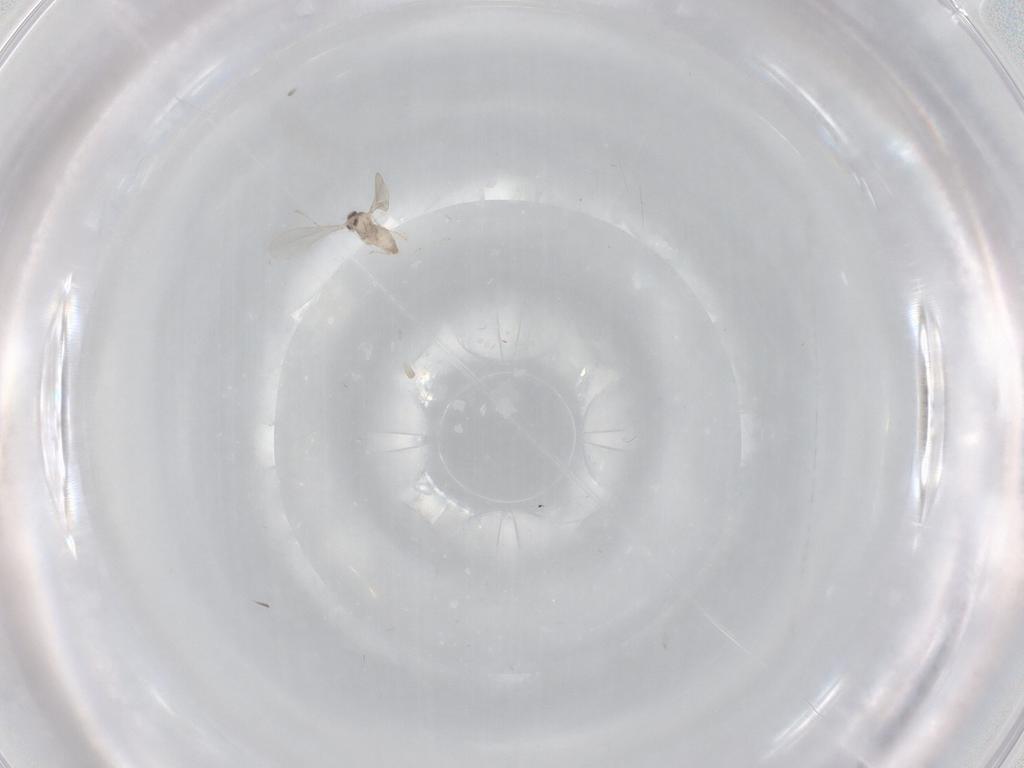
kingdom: Animalia
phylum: Arthropoda
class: Insecta
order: Diptera
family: Cecidomyiidae
